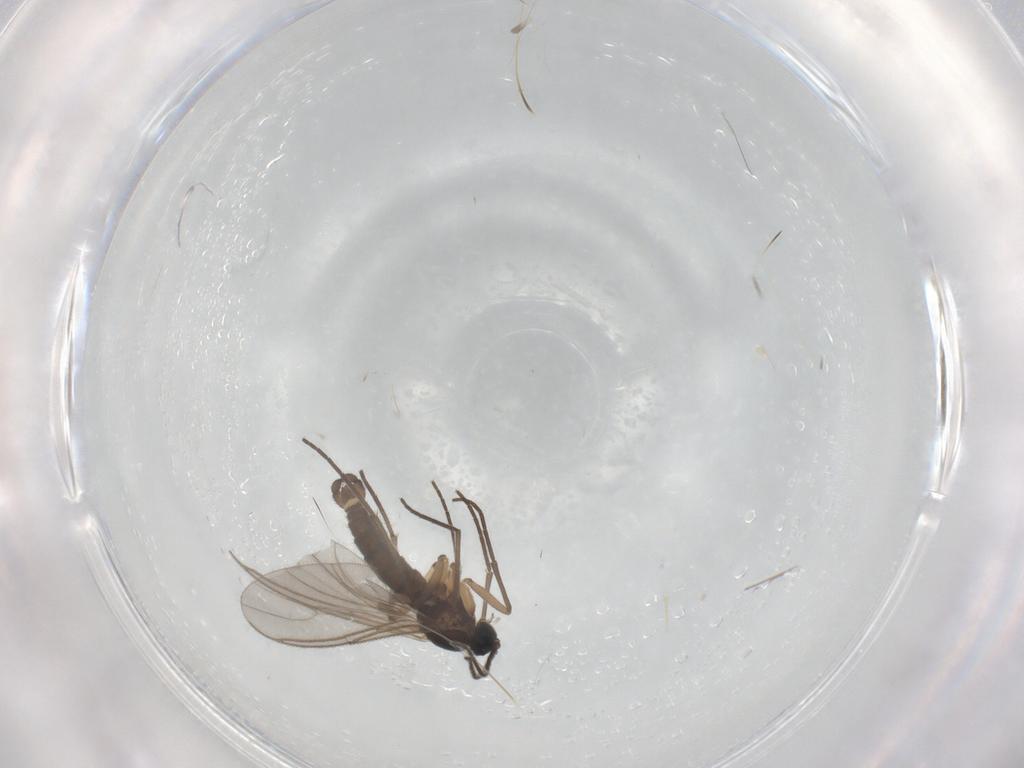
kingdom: Animalia
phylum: Arthropoda
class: Insecta
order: Diptera
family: Sciaridae
